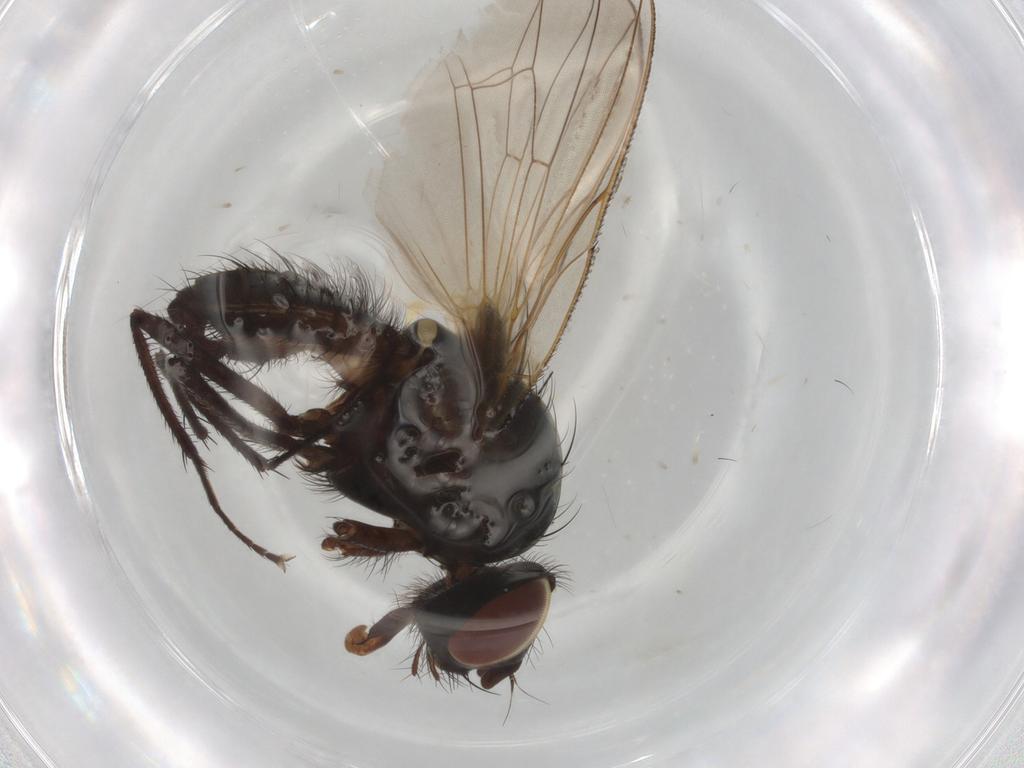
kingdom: Animalia
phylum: Arthropoda
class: Insecta
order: Diptera
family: Anthomyiidae
